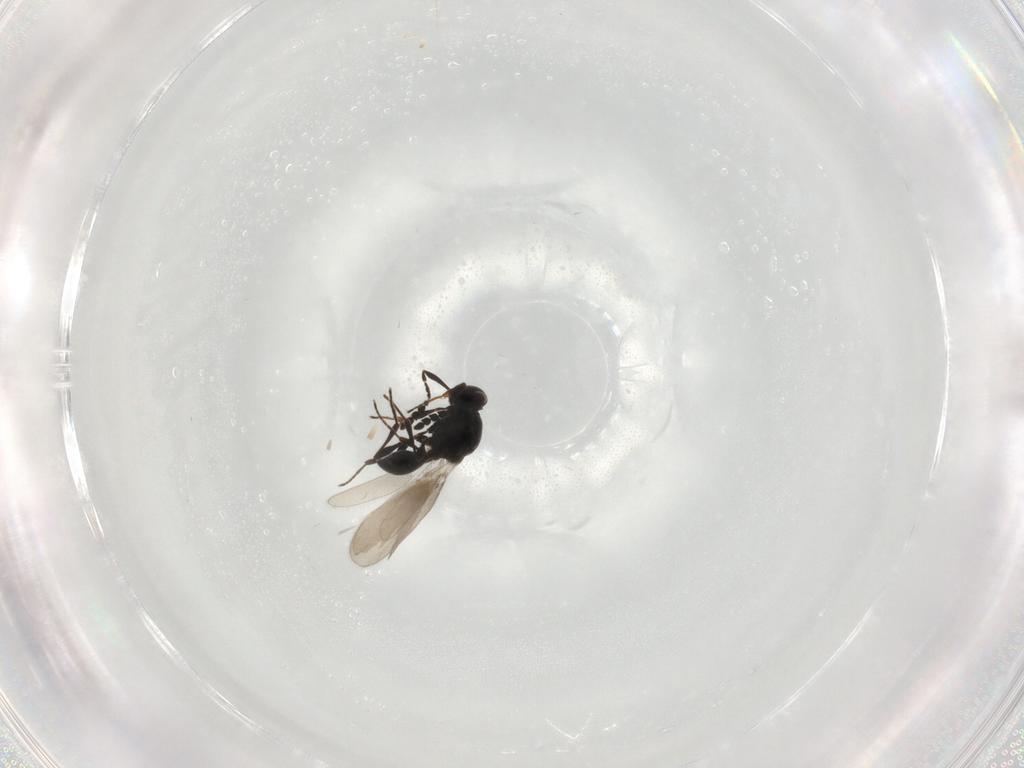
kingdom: Animalia
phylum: Arthropoda
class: Insecta
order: Hymenoptera
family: Platygastridae
